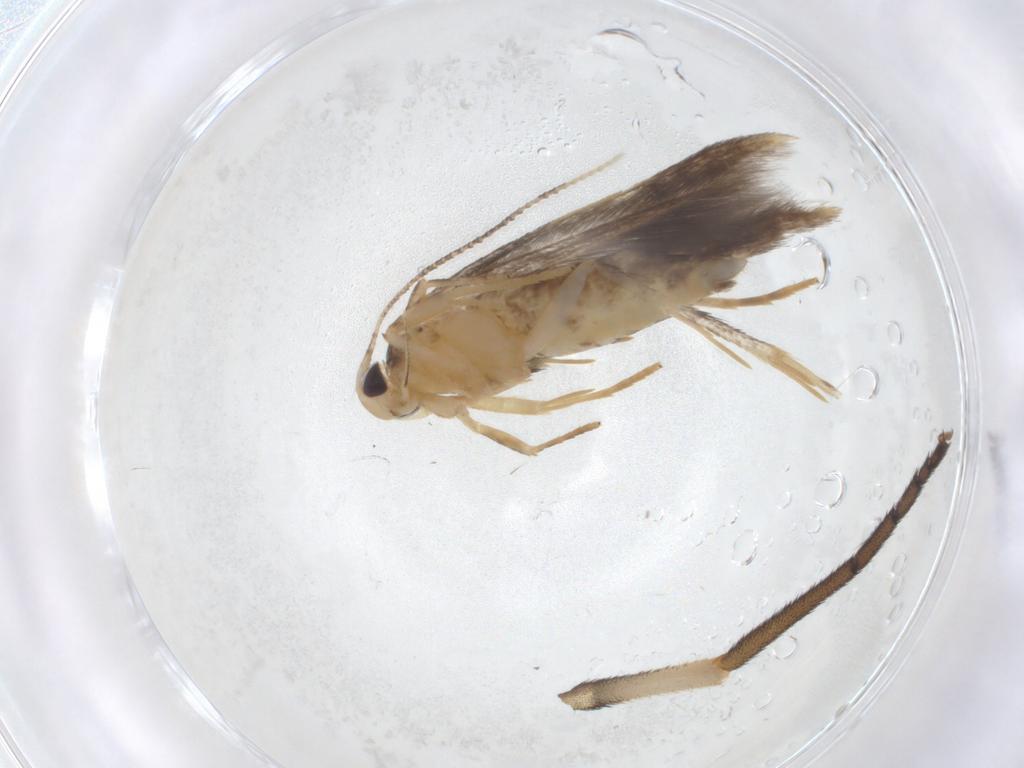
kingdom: Animalia
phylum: Arthropoda
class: Insecta
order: Lepidoptera
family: Cosmopterigidae
